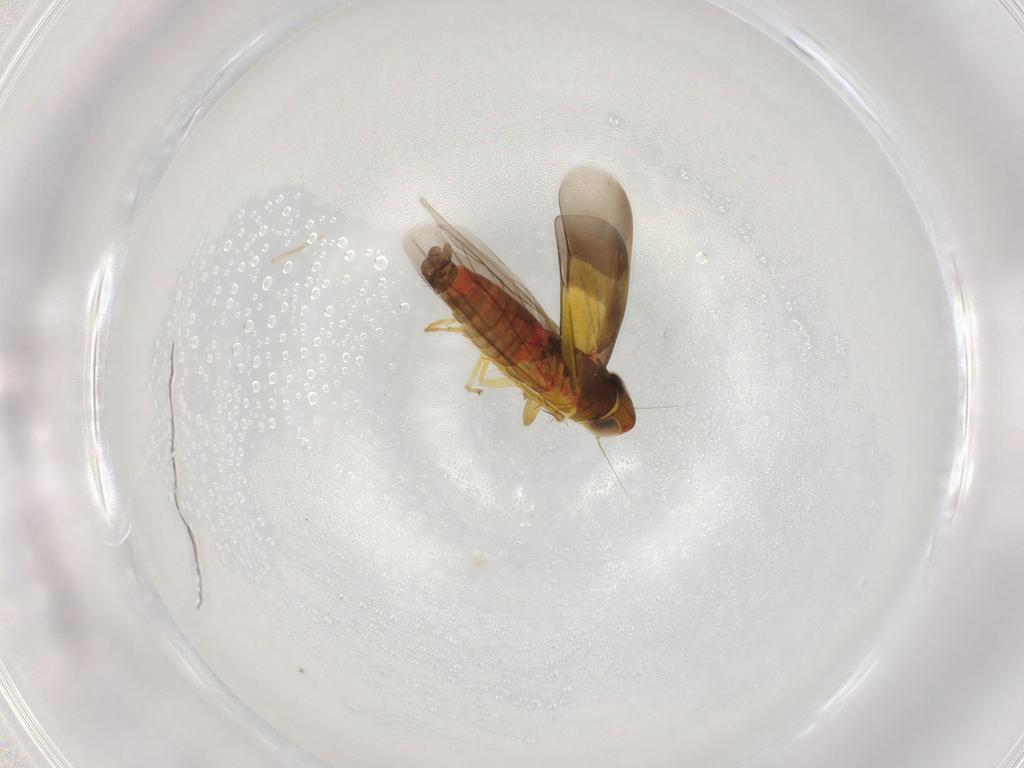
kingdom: Animalia
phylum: Arthropoda
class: Insecta
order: Hemiptera
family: Cicadellidae
